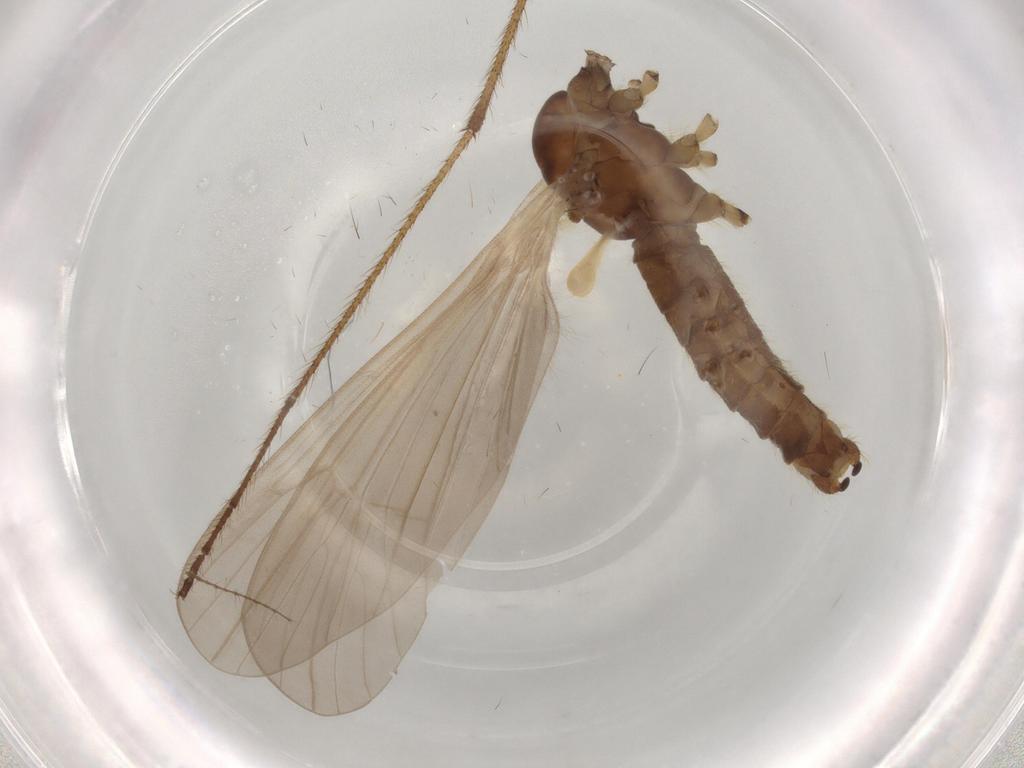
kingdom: Animalia
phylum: Arthropoda
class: Insecta
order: Diptera
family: Limoniidae
